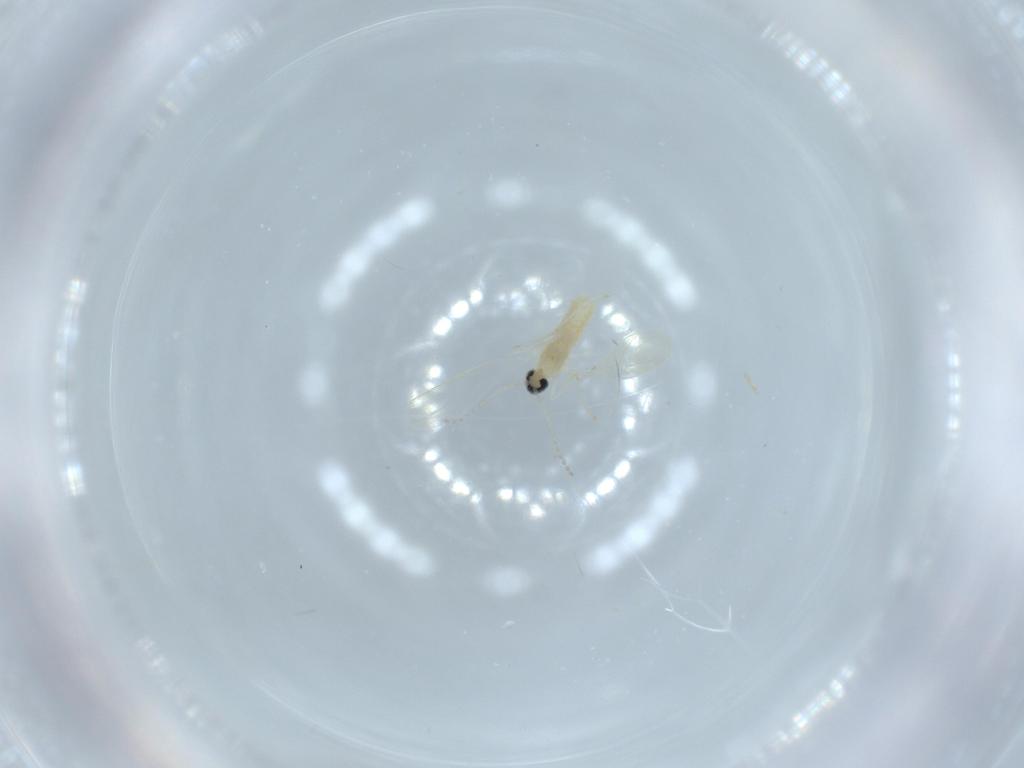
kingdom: Animalia
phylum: Arthropoda
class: Insecta
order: Diptera
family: Cecidomyiidae
